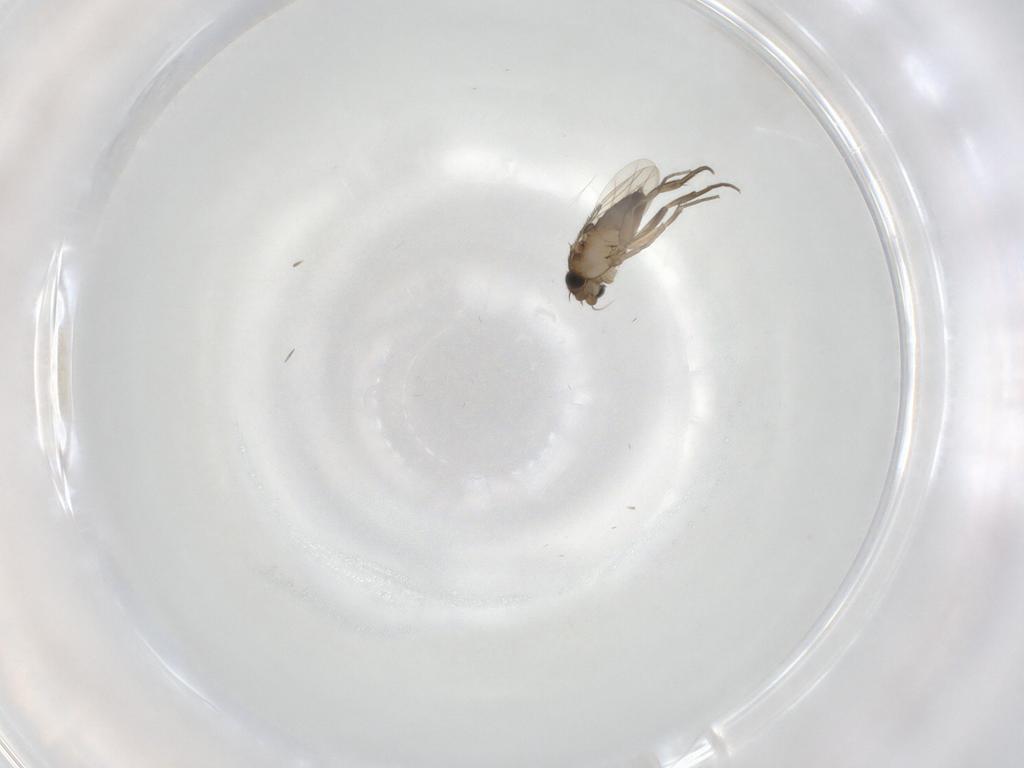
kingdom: Animalia
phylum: Arthropoda
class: Insecta
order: Diptera
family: Phoridae
